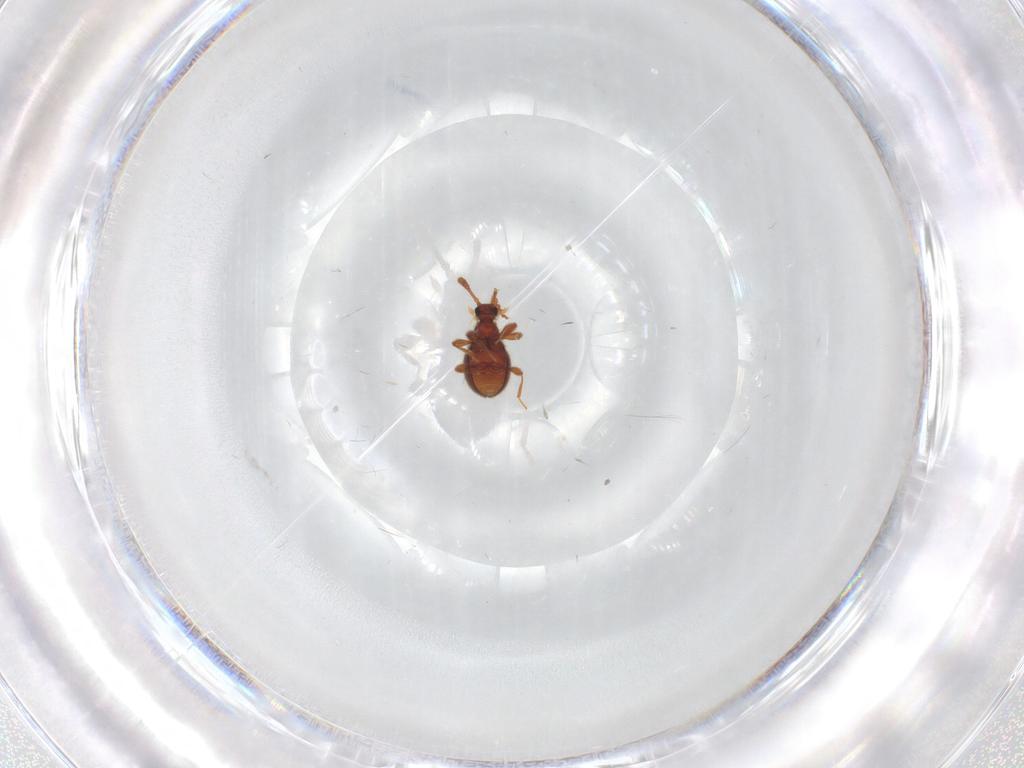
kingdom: Animalia
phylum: Arthropoda
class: Insecta
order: Coleoptera
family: Staphylinidae
